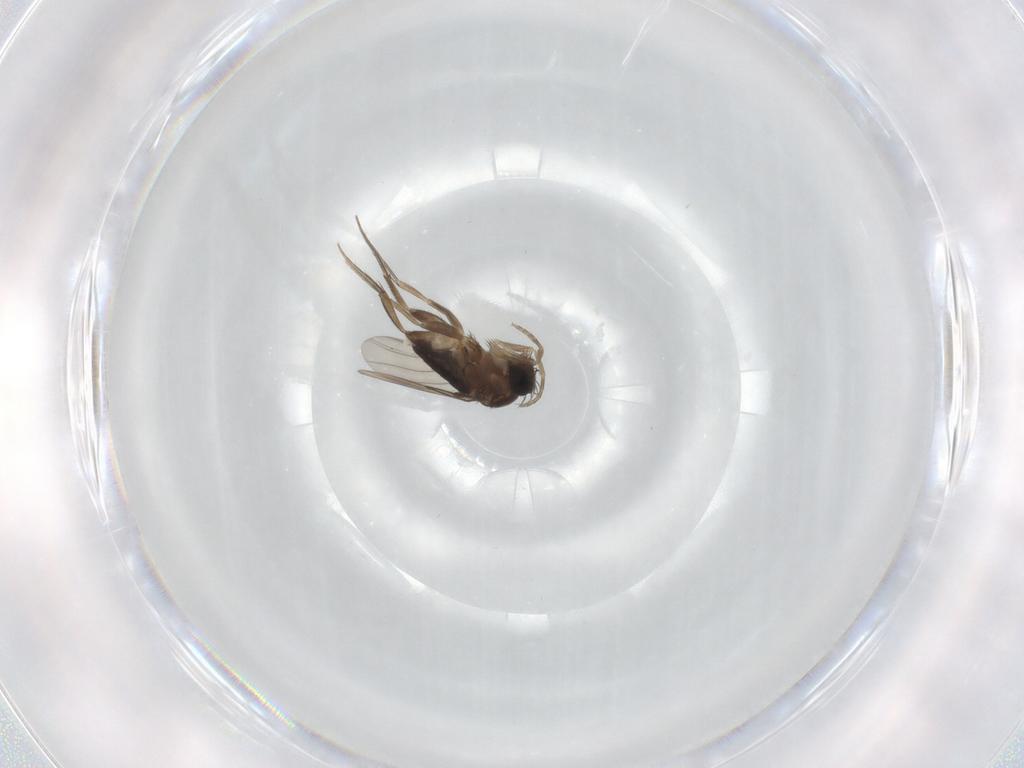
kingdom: Animalia
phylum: Arthropoda
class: Insecta
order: Diptera
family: Phoridae
